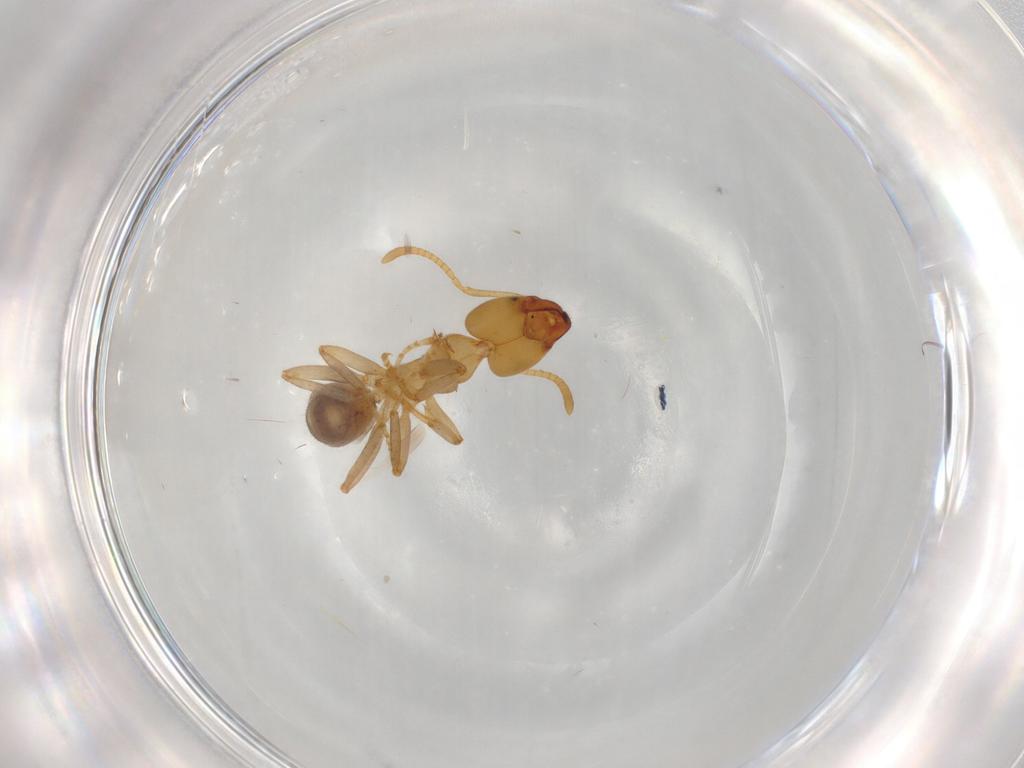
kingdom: Animalia
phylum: Arthropoda
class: Insecta
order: Hymenoptera
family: Formicidae
